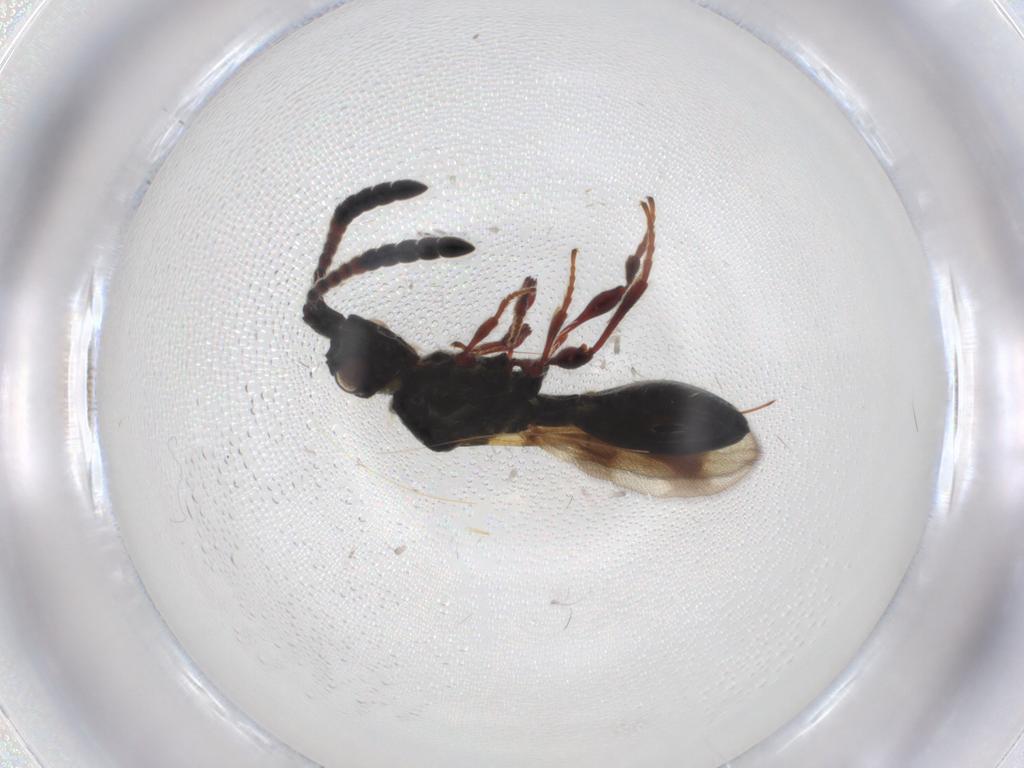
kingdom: Animalia
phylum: Arthropoda
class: Insecta
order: Hymenoptera
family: Diapriidae
